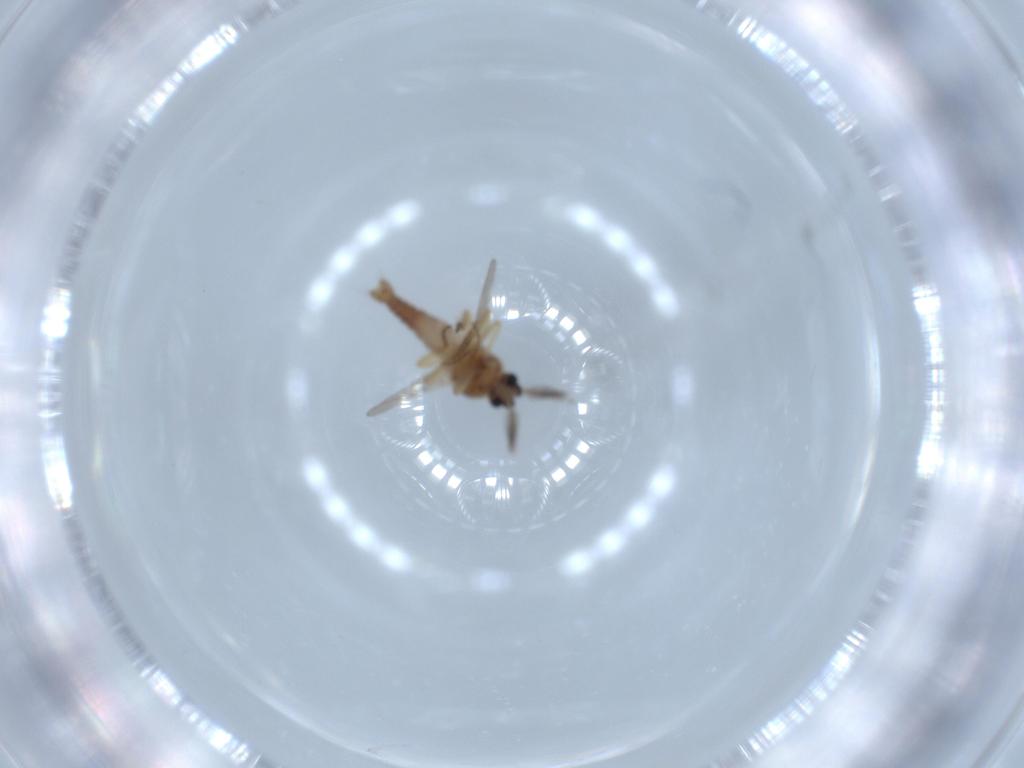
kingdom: Animalia
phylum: Arthropoda
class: Insecta
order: Diptera
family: Ceratopogonidae
